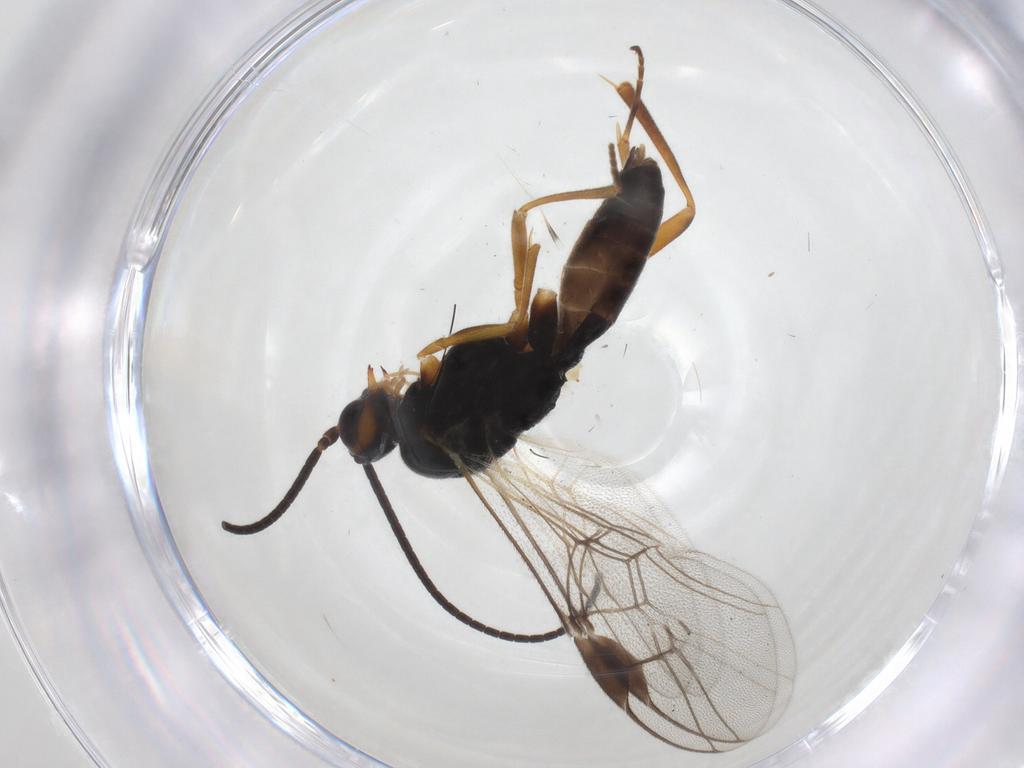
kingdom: Animalia
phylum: Arthropoda
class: Insecta
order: Hymenoptera
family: Braconidae
